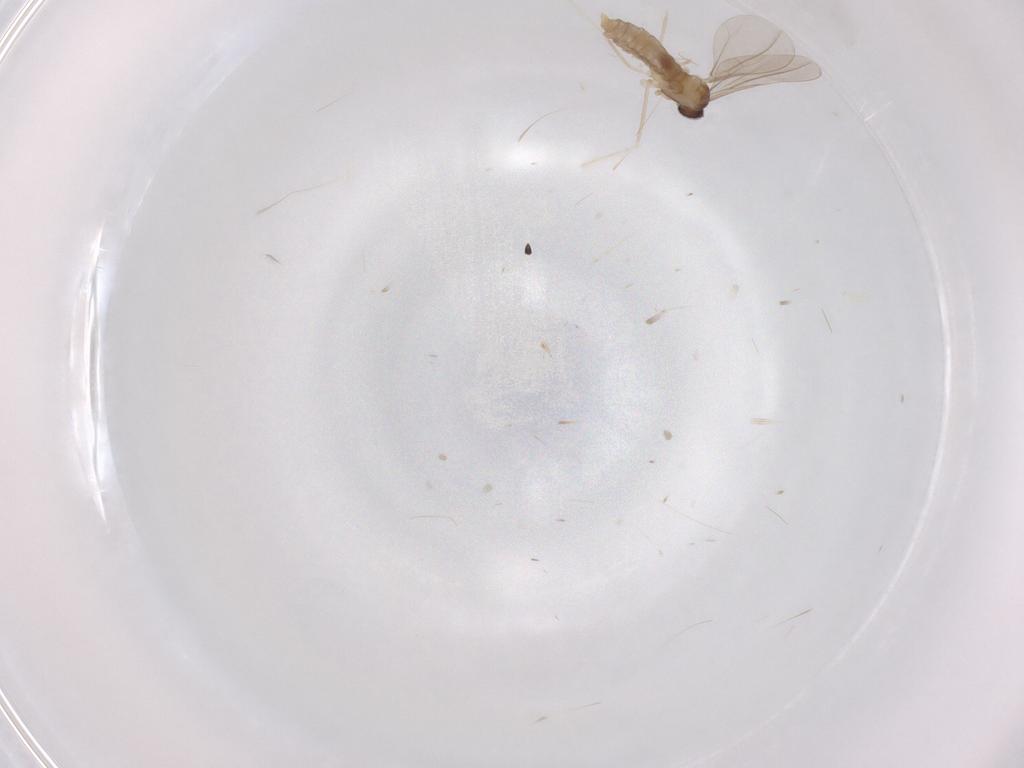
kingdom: Animalia
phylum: Arthropoda
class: Insecta
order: Diptera
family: Cecidomyiidae
